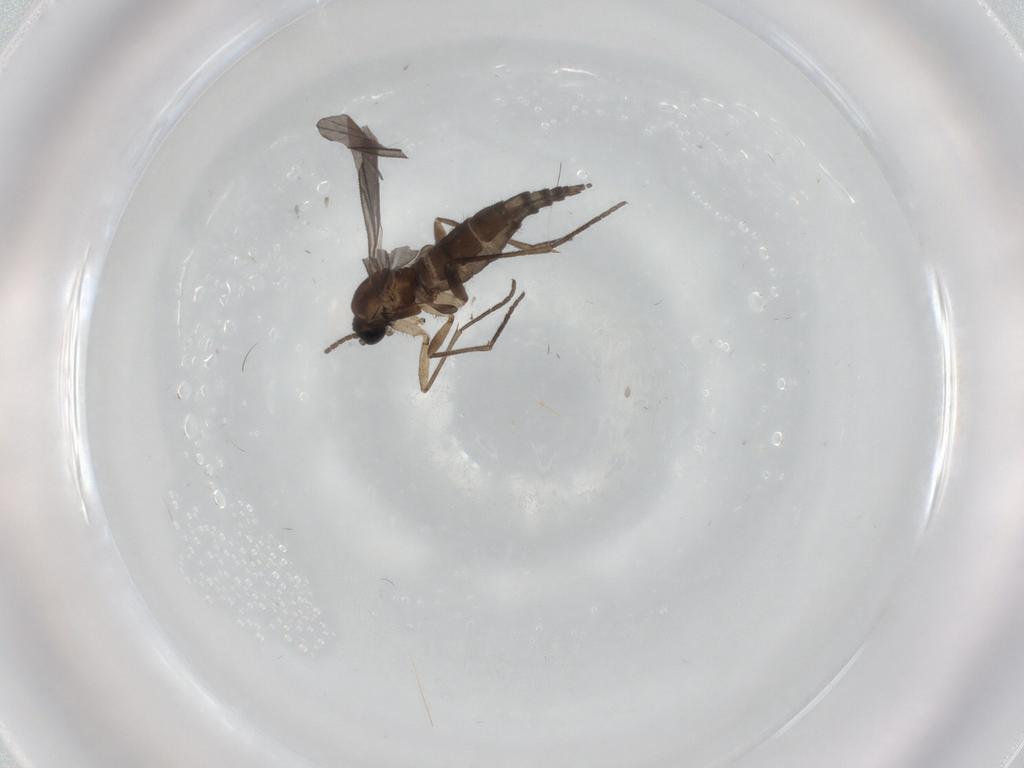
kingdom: Animalia
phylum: Arthropoda
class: Insecta
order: Diptera
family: Sciaridae
